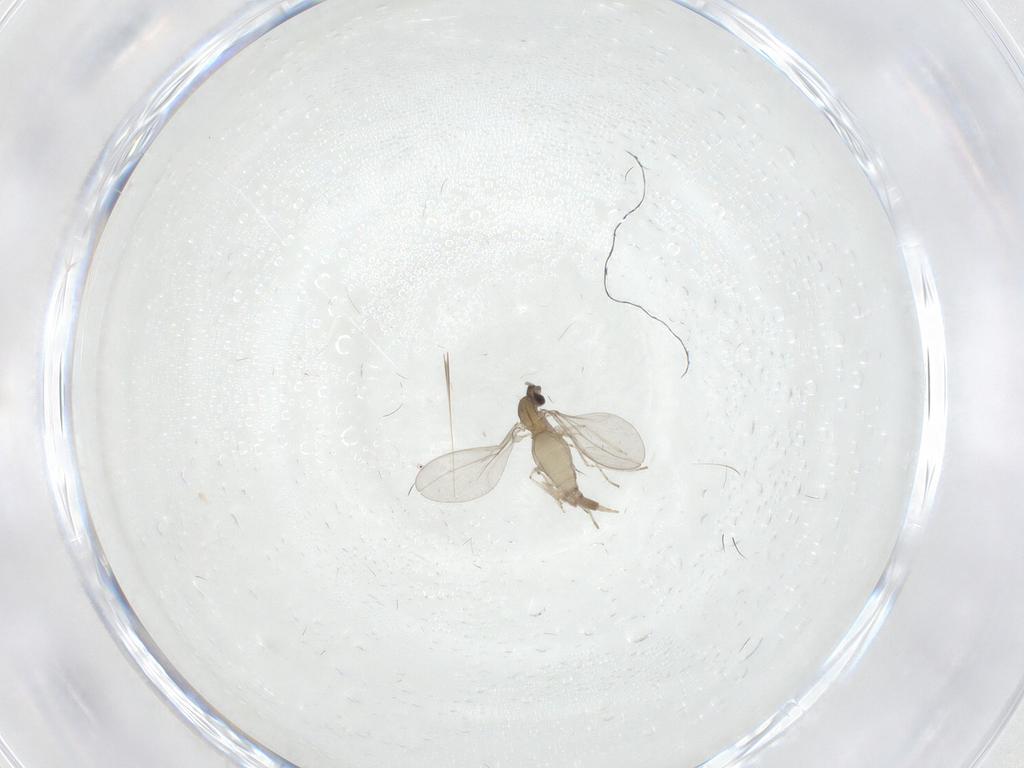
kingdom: Animalia
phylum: Arthropoda
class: Insecta
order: Diptera
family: Cecidomyiidae
